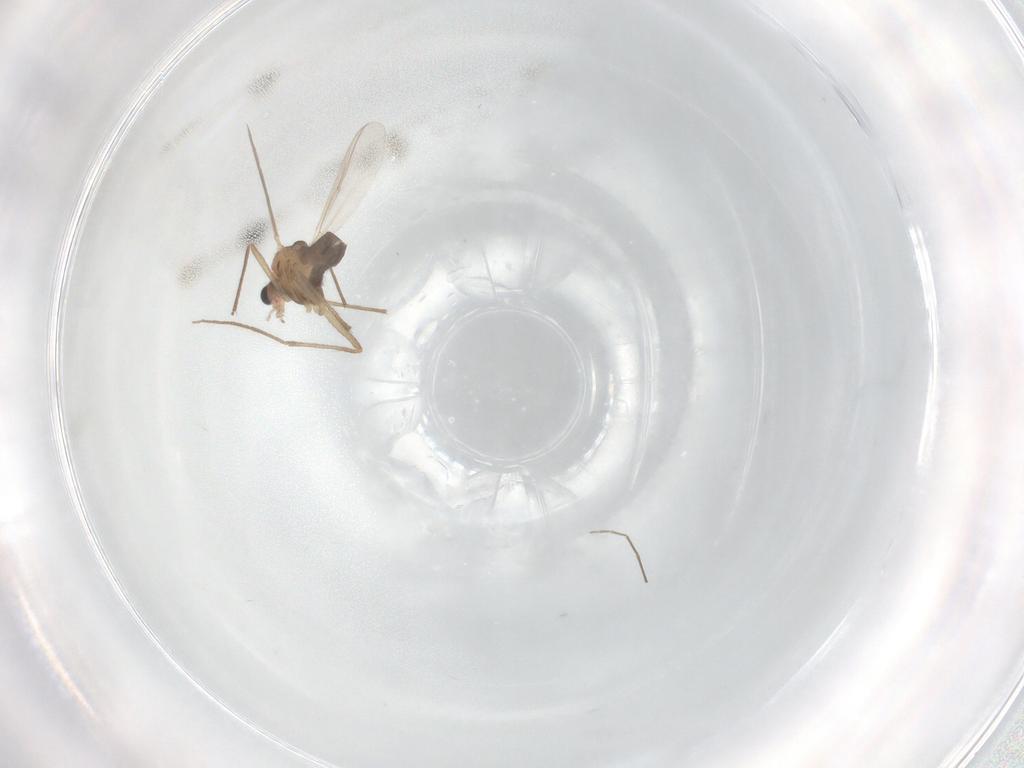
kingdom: Animalia
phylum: Arthropoda
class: Insecta
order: Diptera
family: Chironomidae
